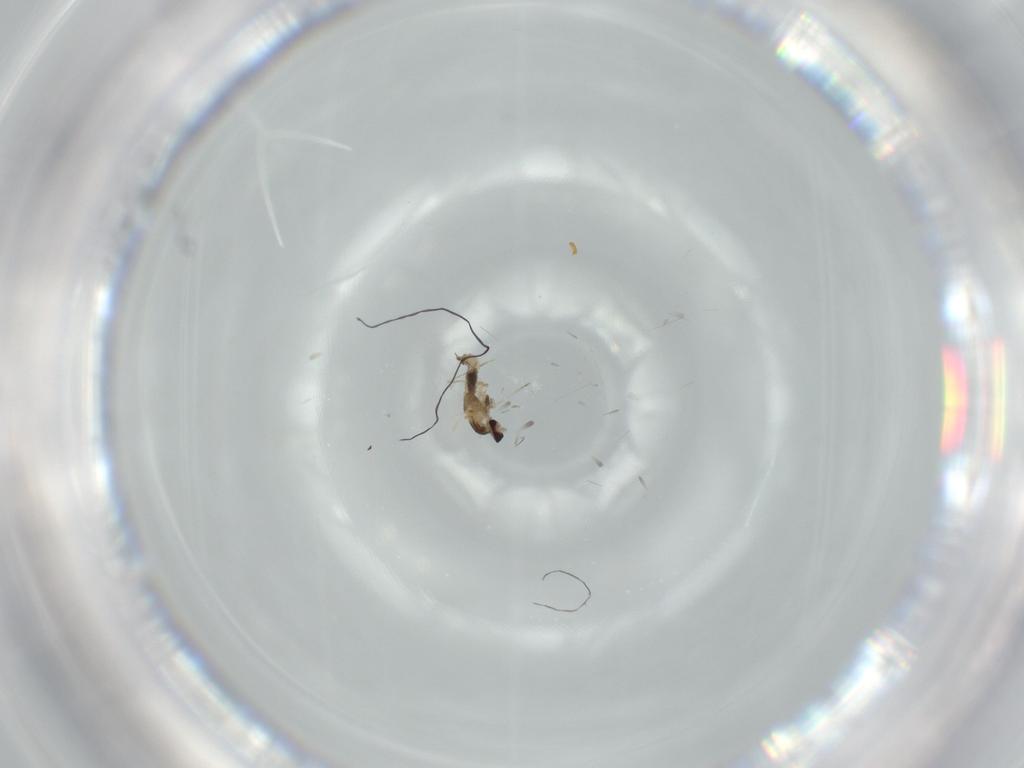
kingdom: Animalia
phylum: Arthropoda
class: Insecta
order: Diptera
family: Cecidomyiidae
